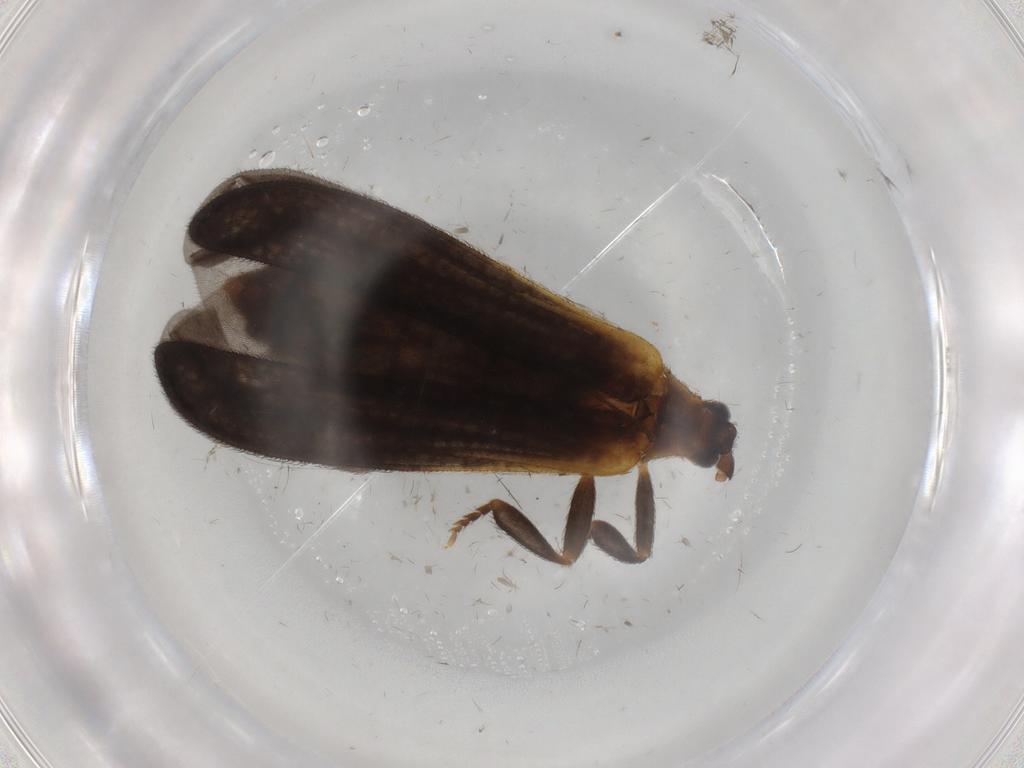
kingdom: Animalia
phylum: Arthropoda
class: Insecta
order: Coleoptera
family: Lycidae
